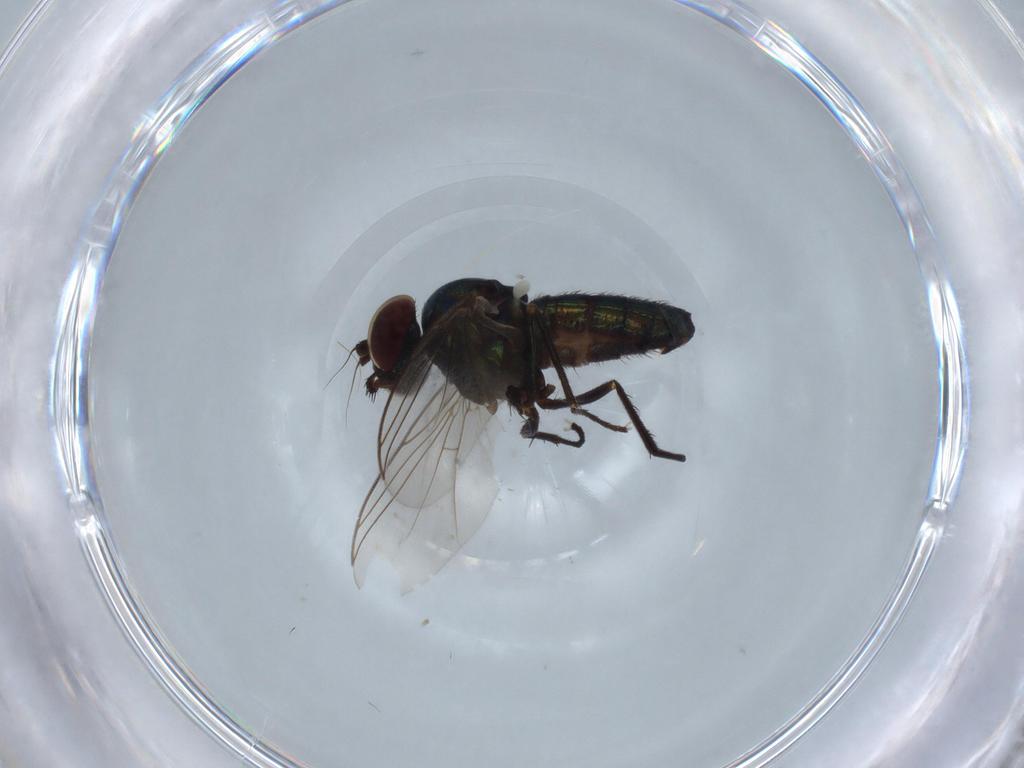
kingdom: Animalia
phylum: Arthropoda
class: Insecta
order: Diptera
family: Dolichopodidae
